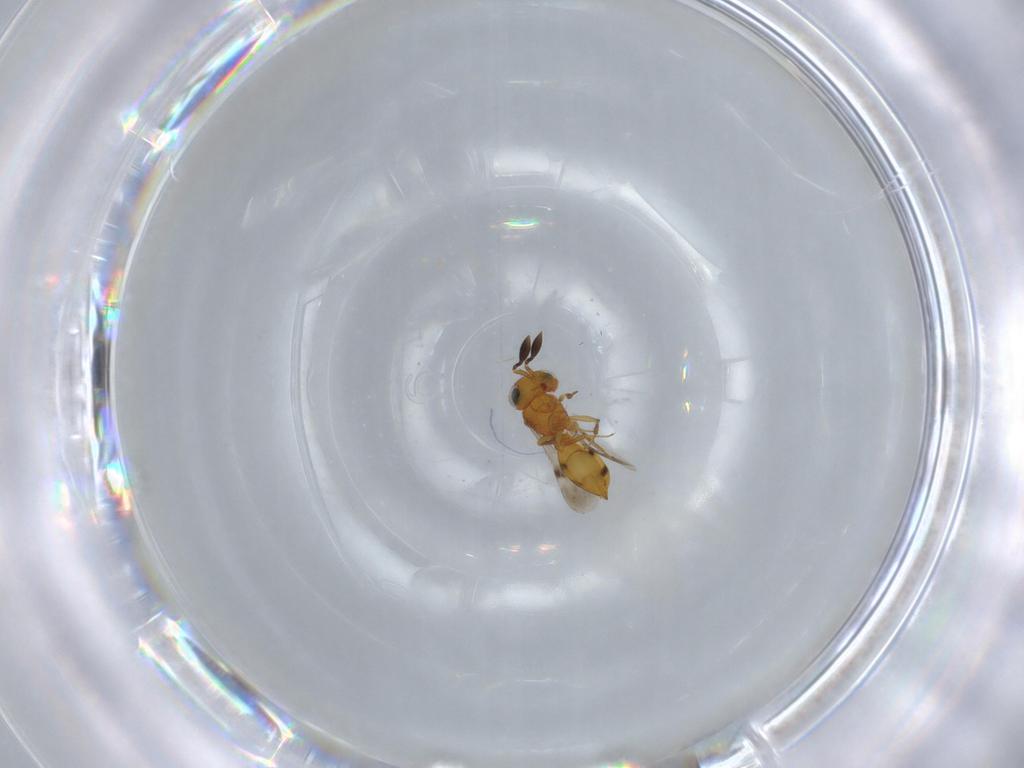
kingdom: Animalia
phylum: Arthropoda
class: Insecta
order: Hymenoptera
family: Scelionidae
